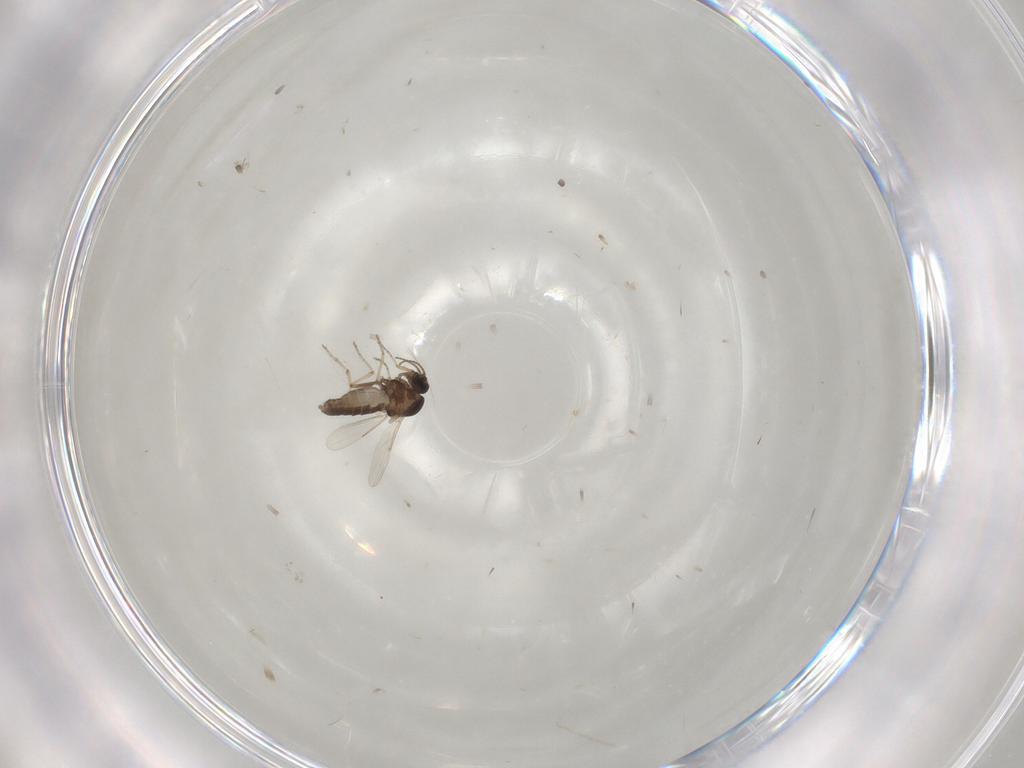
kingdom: Animalia
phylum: Arthropoda
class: Insecta
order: Diptera
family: Ceratopogonidae
